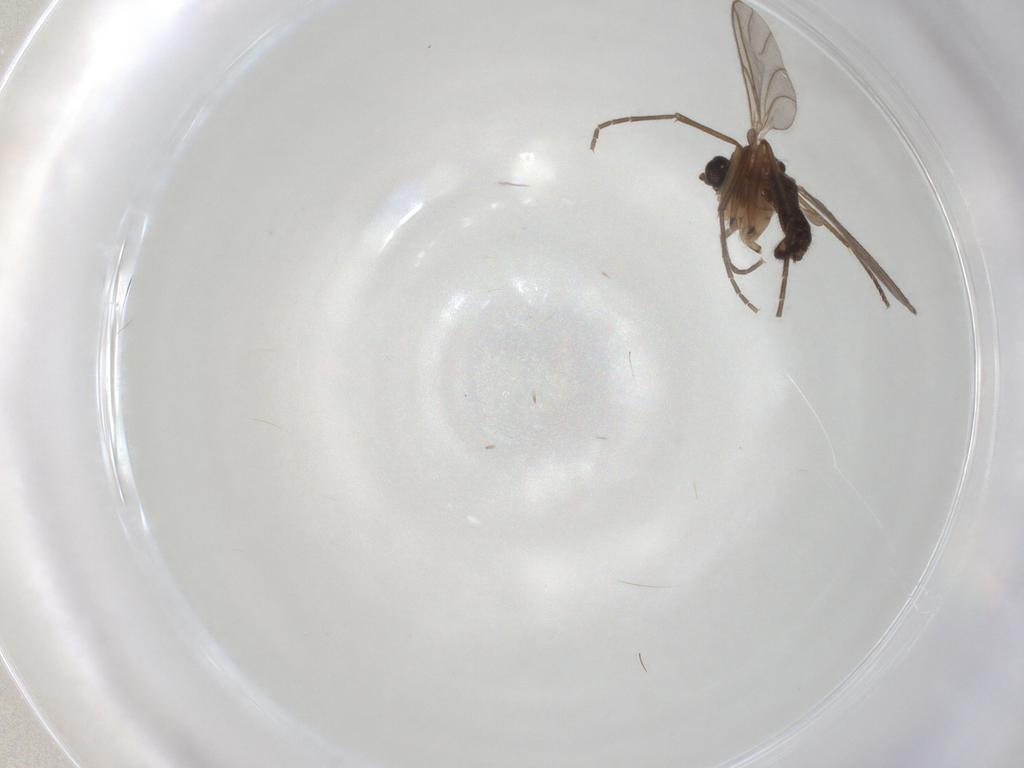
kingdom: Animalia
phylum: Arthropoda
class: Insecta
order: Diptera
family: Sciaridae
